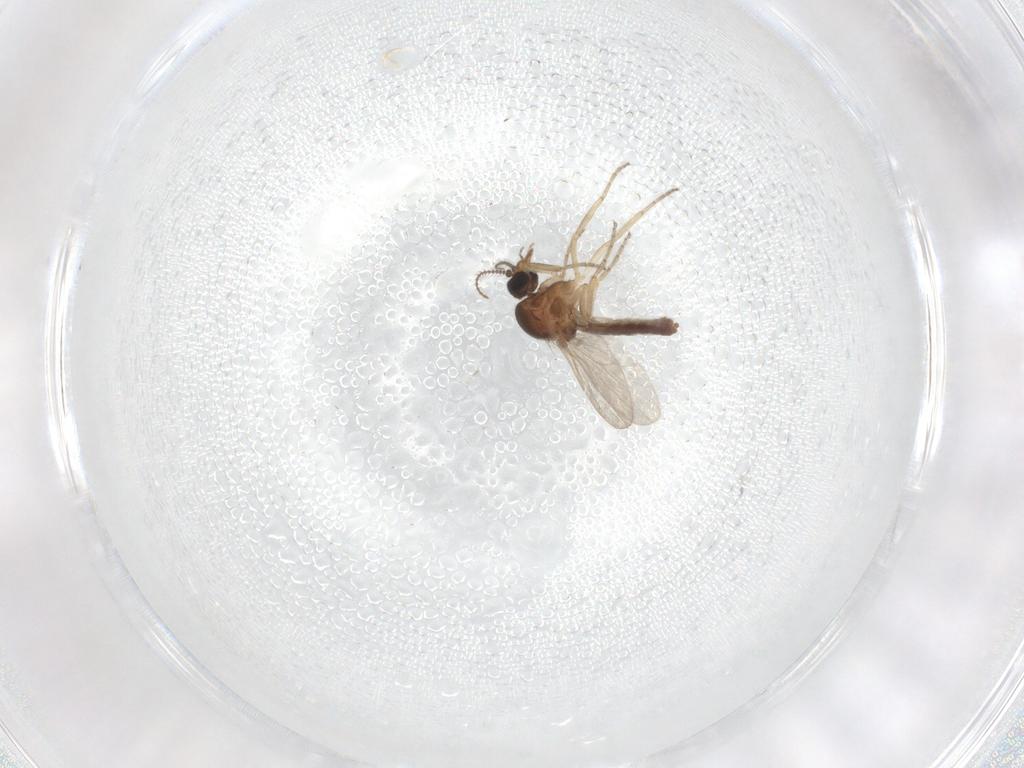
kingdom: Animalia
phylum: Arthropoda
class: Insecta
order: Diptera
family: Ceratopogonidae
